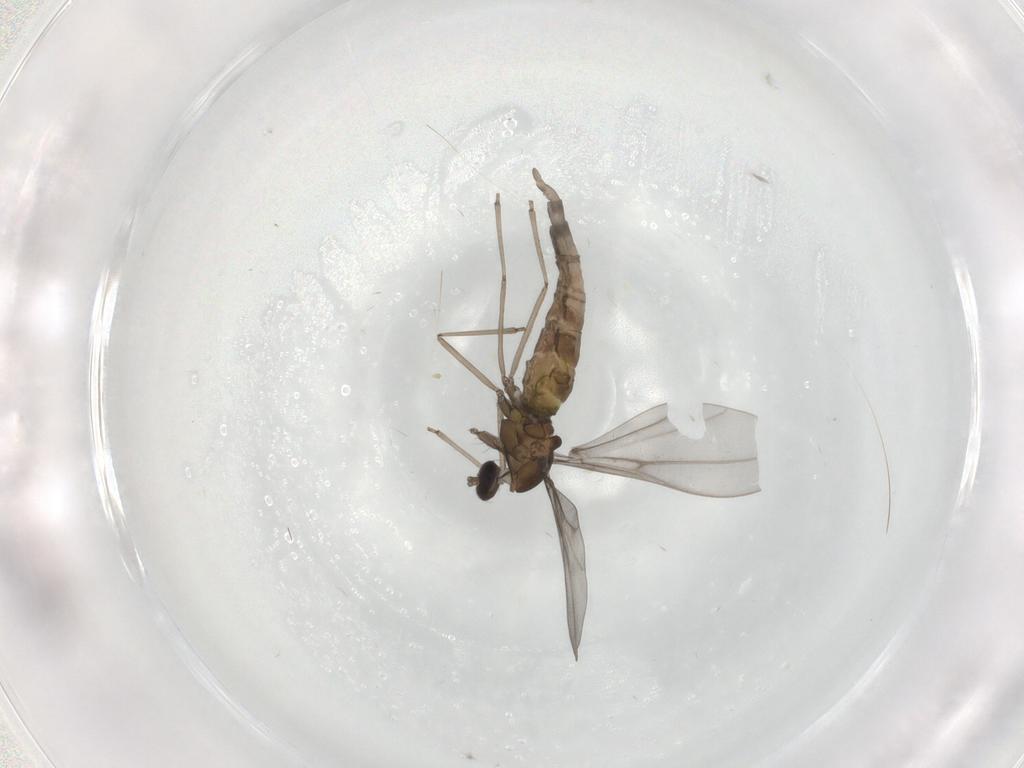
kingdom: Animalia
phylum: Arthropoda
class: Insecta
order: Diptera
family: Cecidomyiidae
